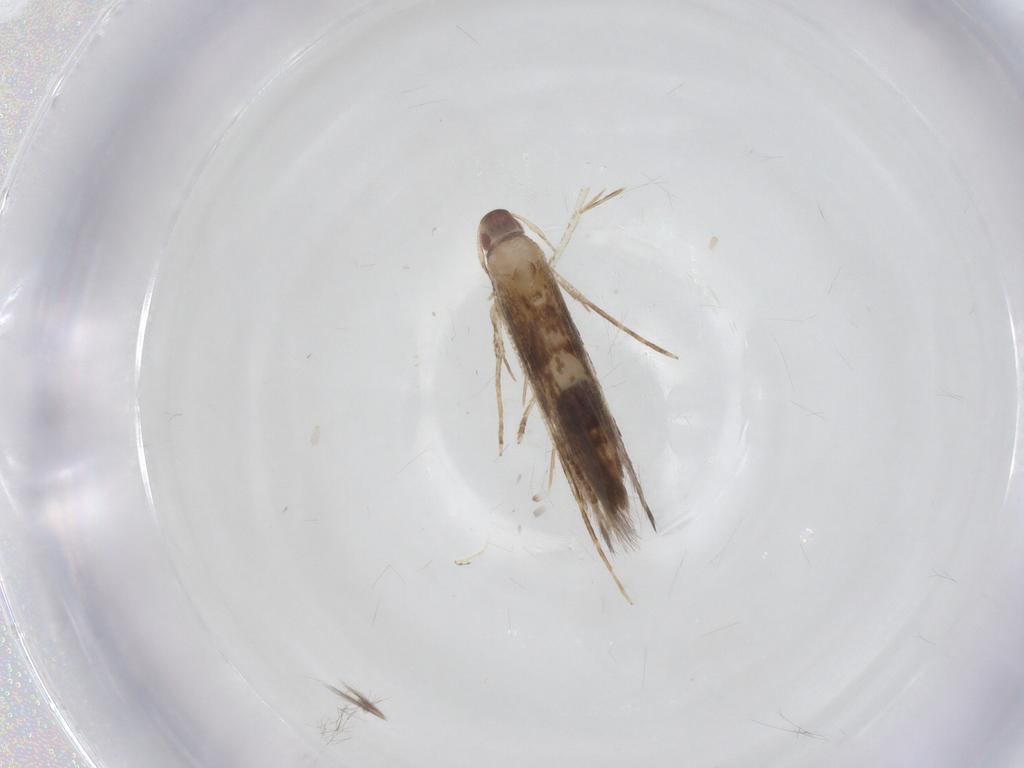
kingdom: Animalia
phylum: Arthropoda
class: Insecta
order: Lepidoptera
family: Cosmopterigidae
